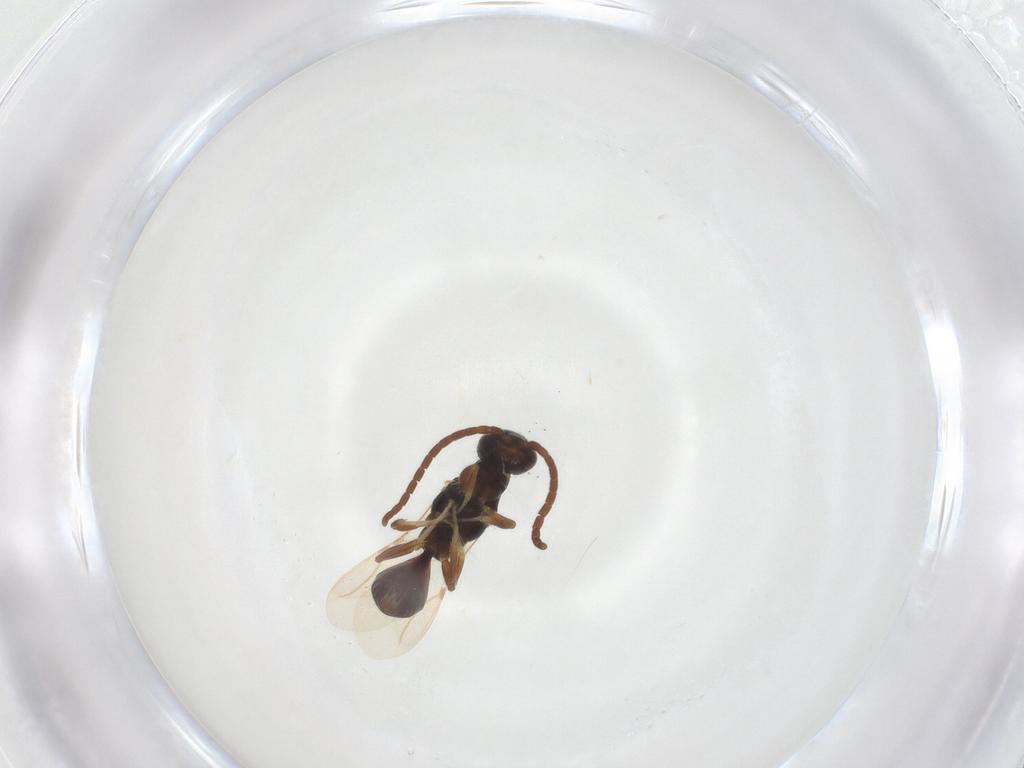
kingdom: Animalia
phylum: Arthropoda
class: Insecta
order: Hymenoptera
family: Bethylidae
